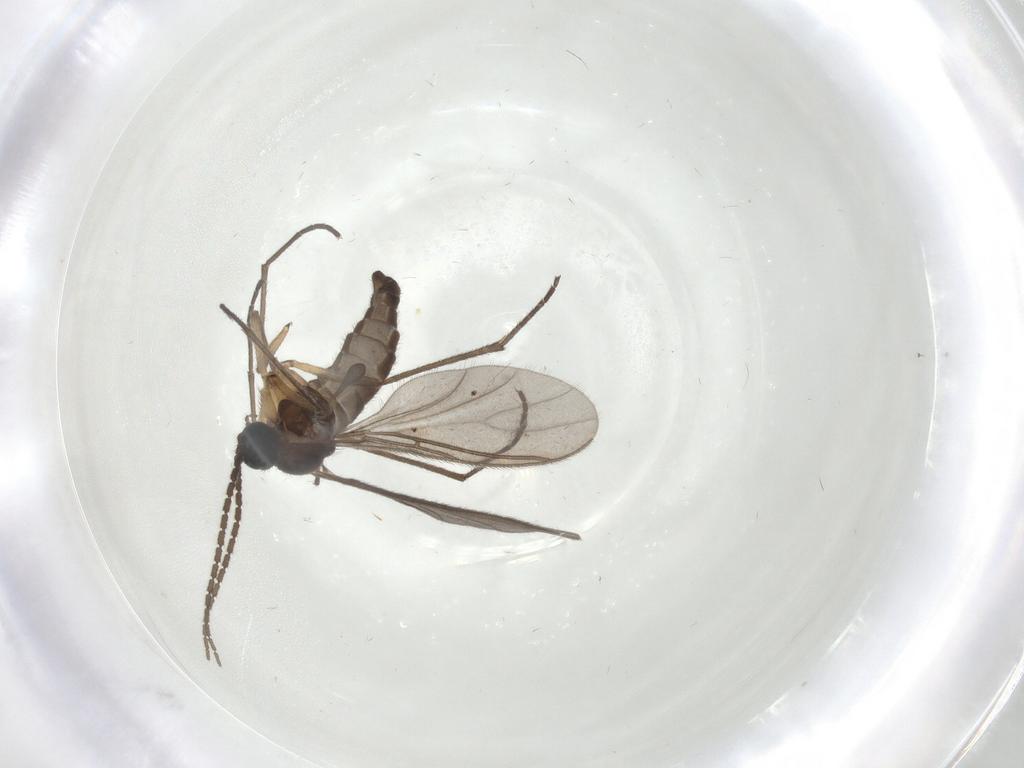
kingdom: Animalia
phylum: Arthropoda
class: Insecta
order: Diptera
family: Sciaridae
